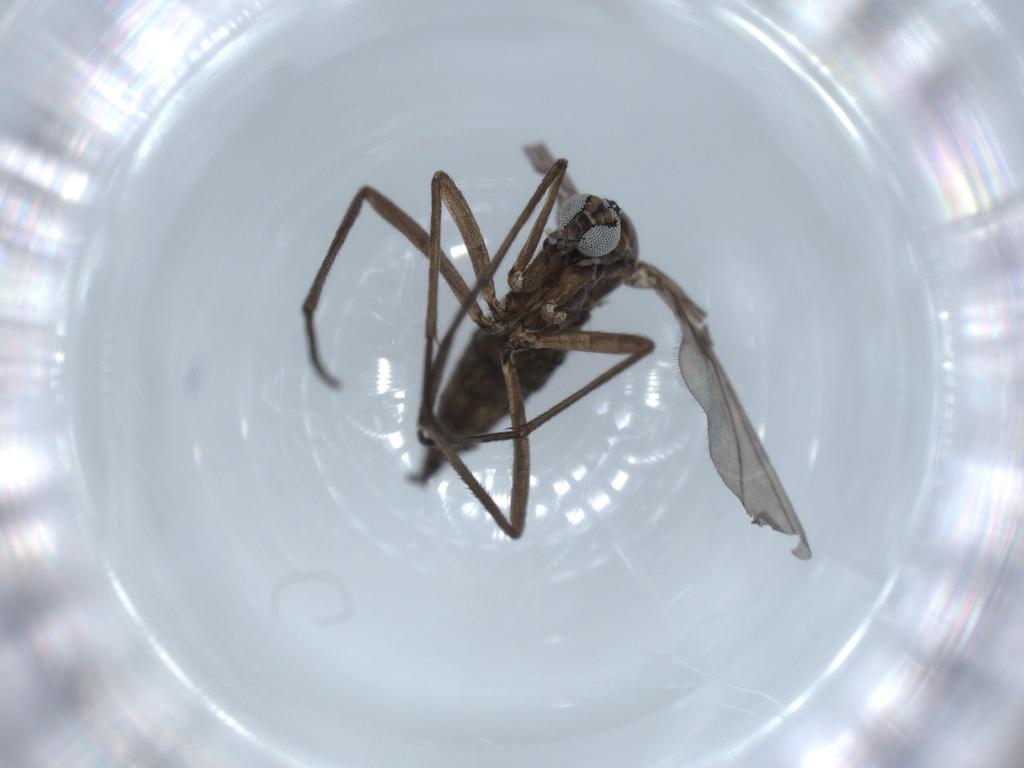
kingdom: Animalia
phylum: Arthropoda
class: Insecta
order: Diptera
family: Sciaridae
